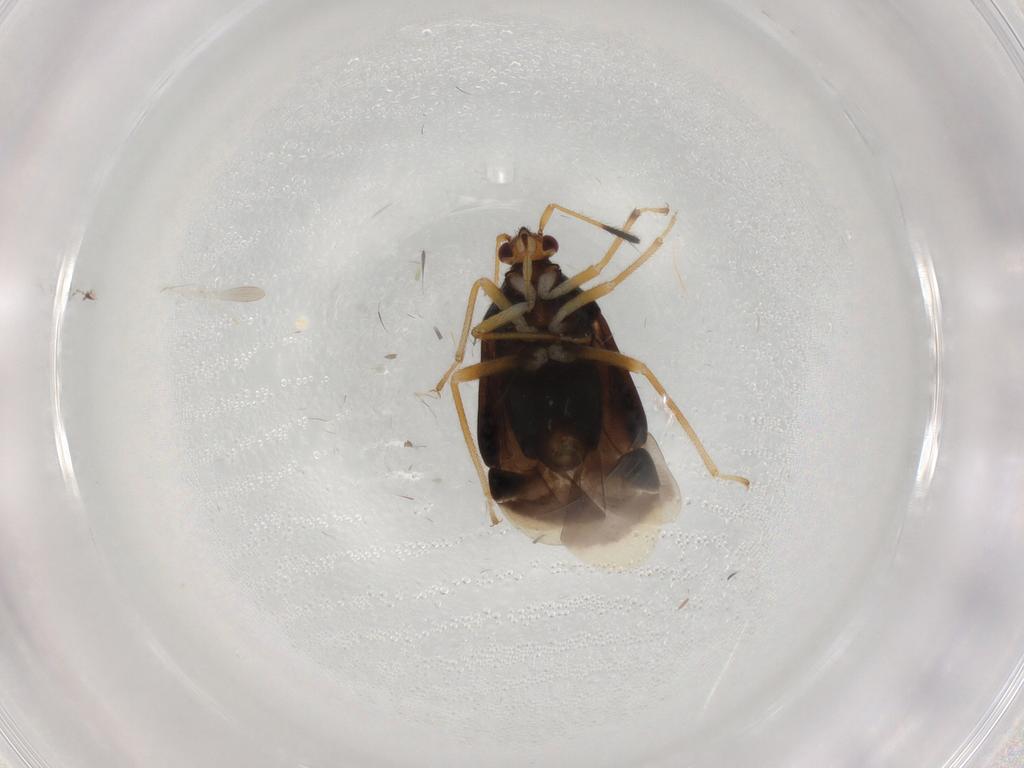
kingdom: Animalia
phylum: Arthropoda
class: Insecta
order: Hemiptera
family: Miridae
